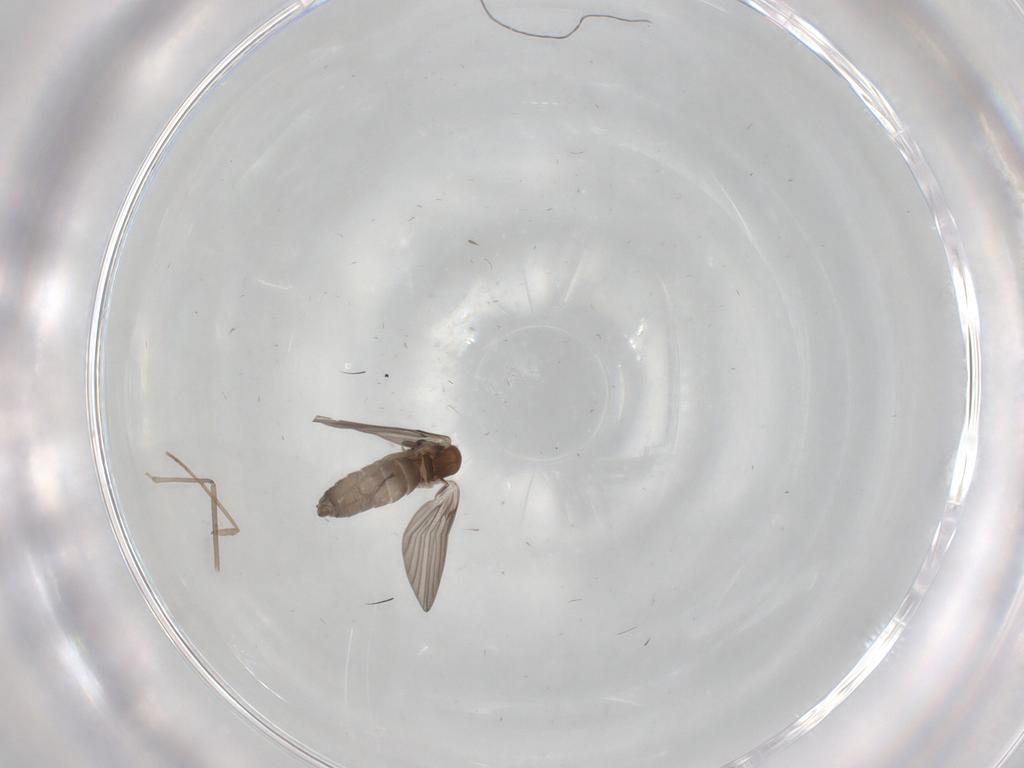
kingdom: Animalia
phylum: Arthropoda
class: Insecta
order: Diptera
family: Cecidomyiidae
